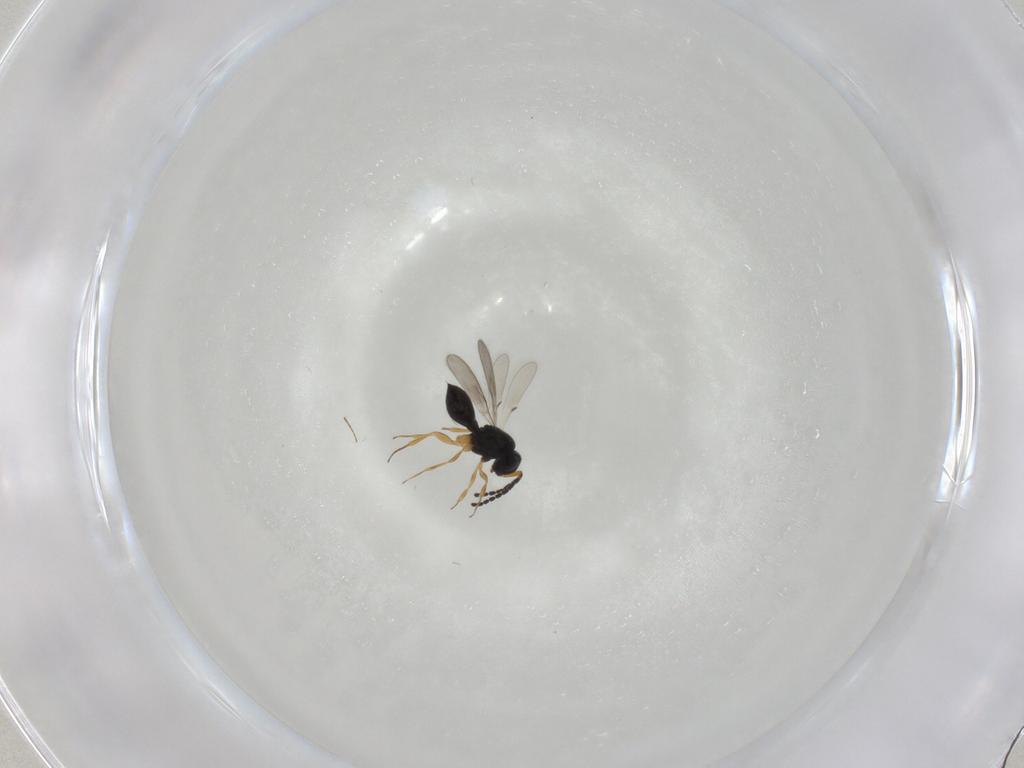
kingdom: Animalia
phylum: Arthropoda
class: Insecta
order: Hymenoptera
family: Scelionidae
